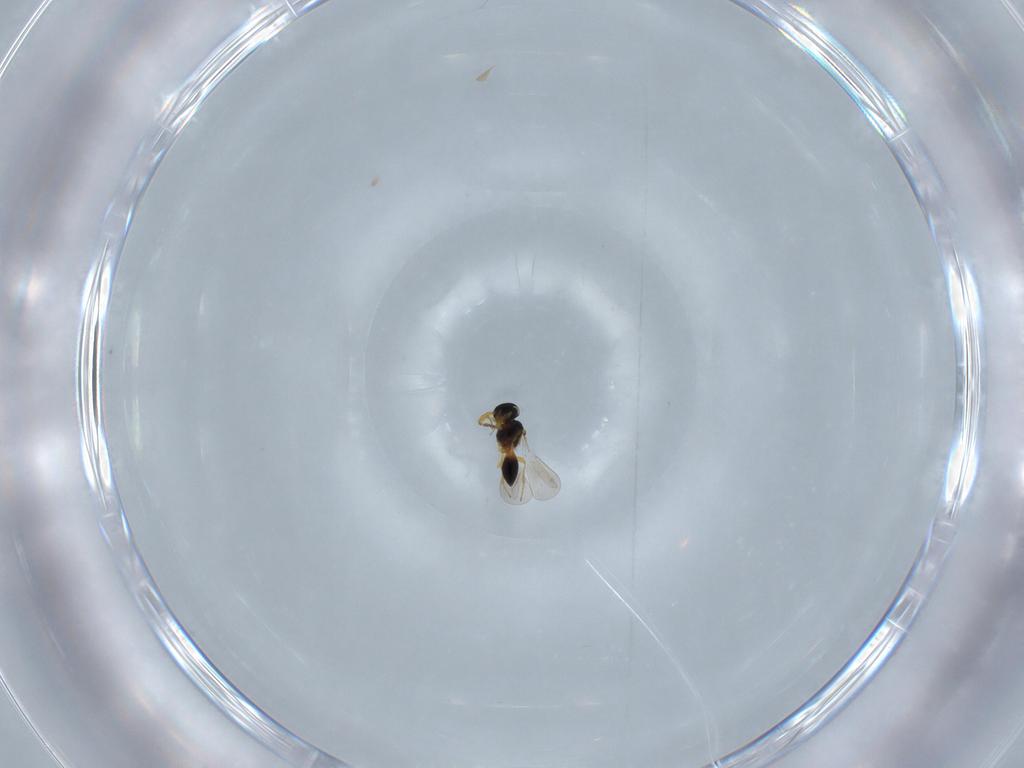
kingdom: Animalia
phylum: Arthropoda
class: Insecta
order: Hymenoptera
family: Platygastridae
